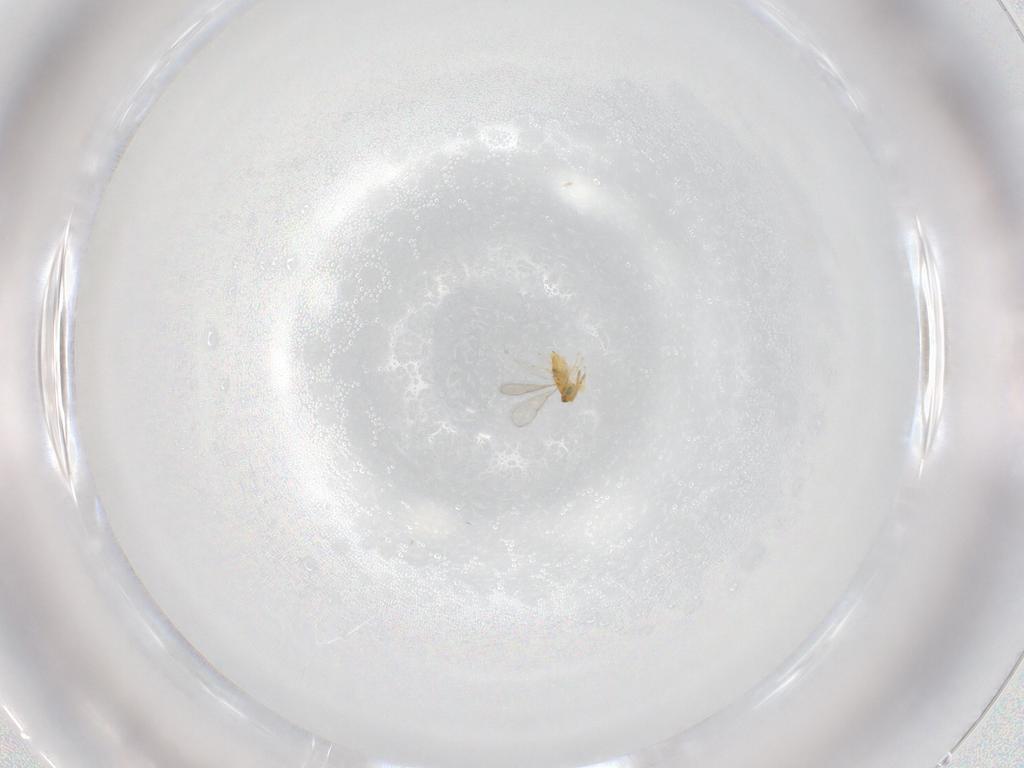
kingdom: Animalia
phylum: Arthropoda
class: Insecta
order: Hymenoptera
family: Aphelinidae
